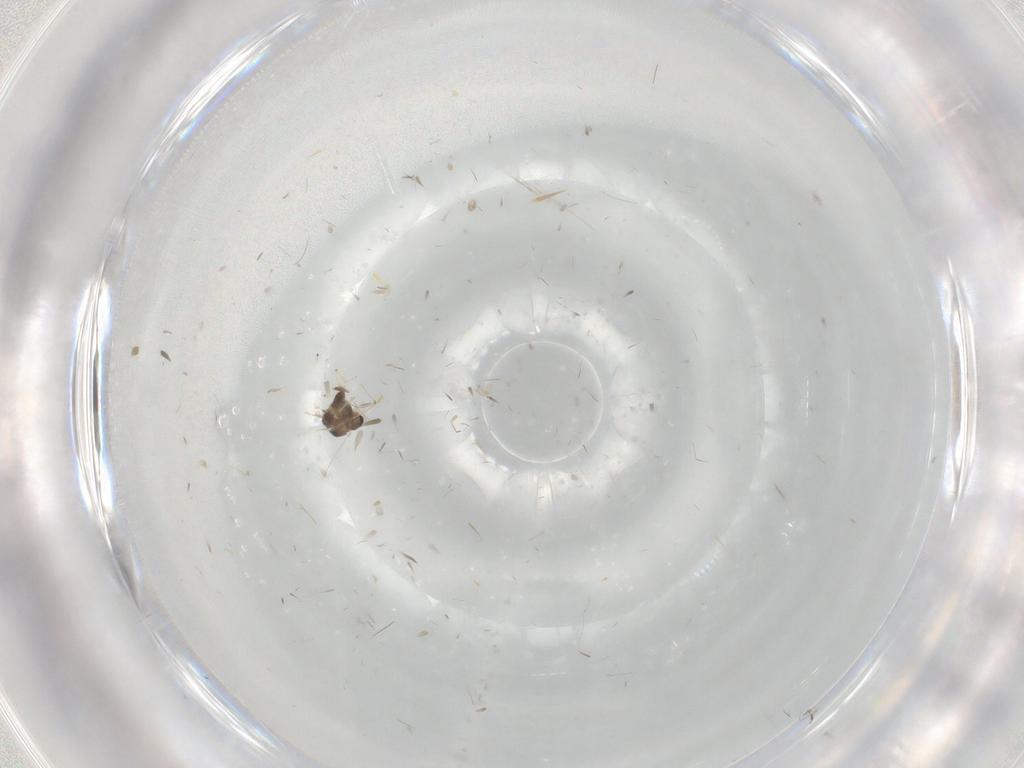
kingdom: Animalia
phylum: Arthropoda
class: Insecta
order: Diptera
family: Chironomidae
